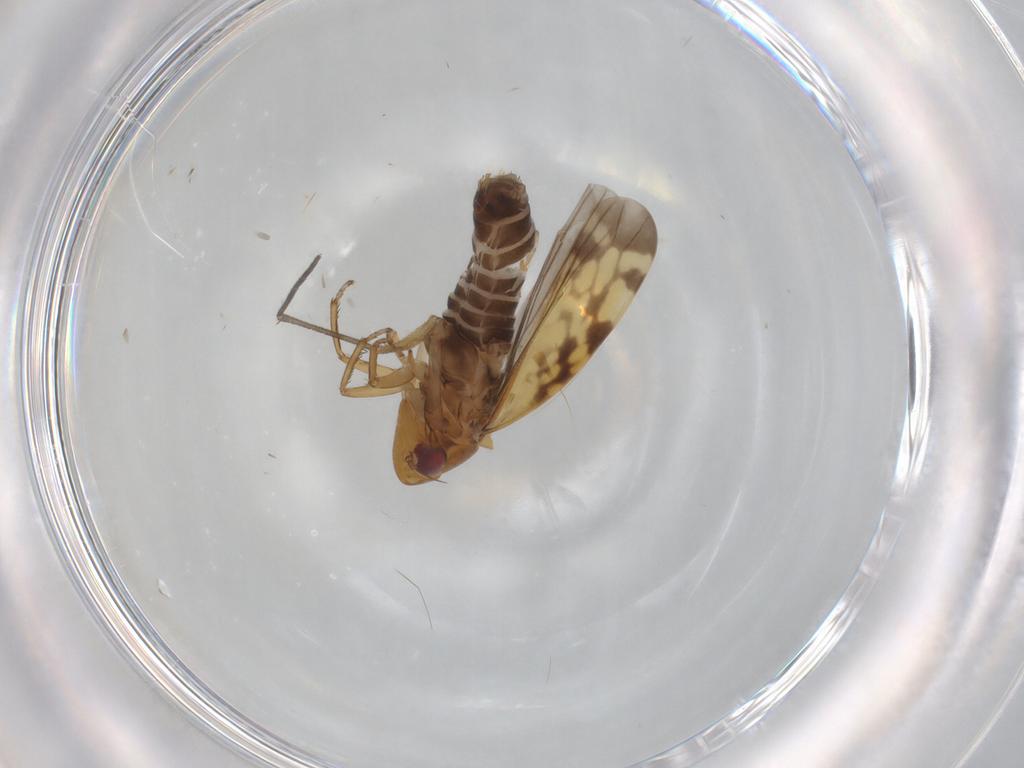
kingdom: Animalia
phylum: Arthropoda
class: Insecta
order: Hemiptera
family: Cicadellidae
